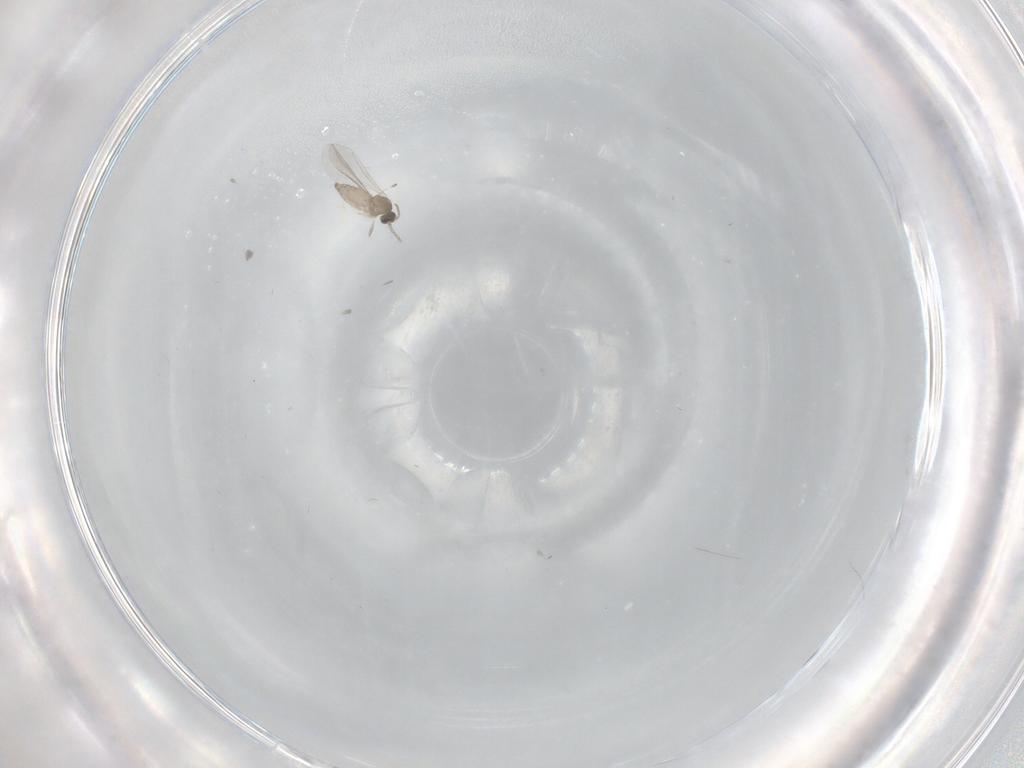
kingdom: Animalia
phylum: Arthropoda
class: Insecta
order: Diptera
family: Cecidomyiidae
